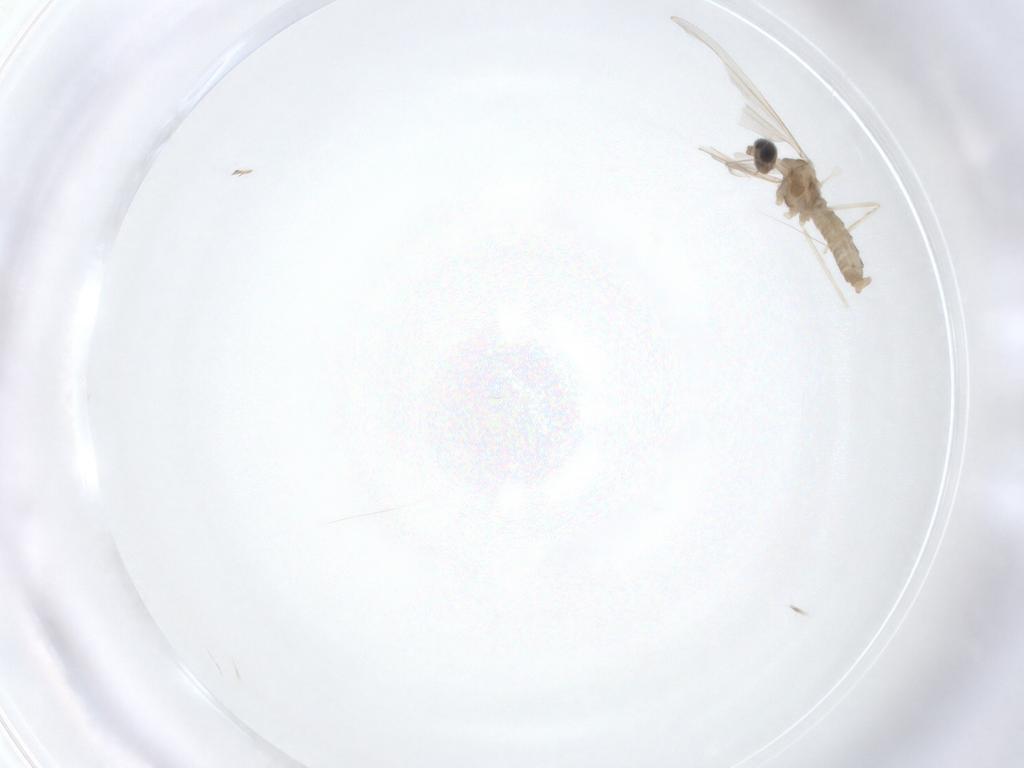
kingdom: Animalia
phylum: Arthropoda
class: Insecta
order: Diptera
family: Cecidomyiidae
